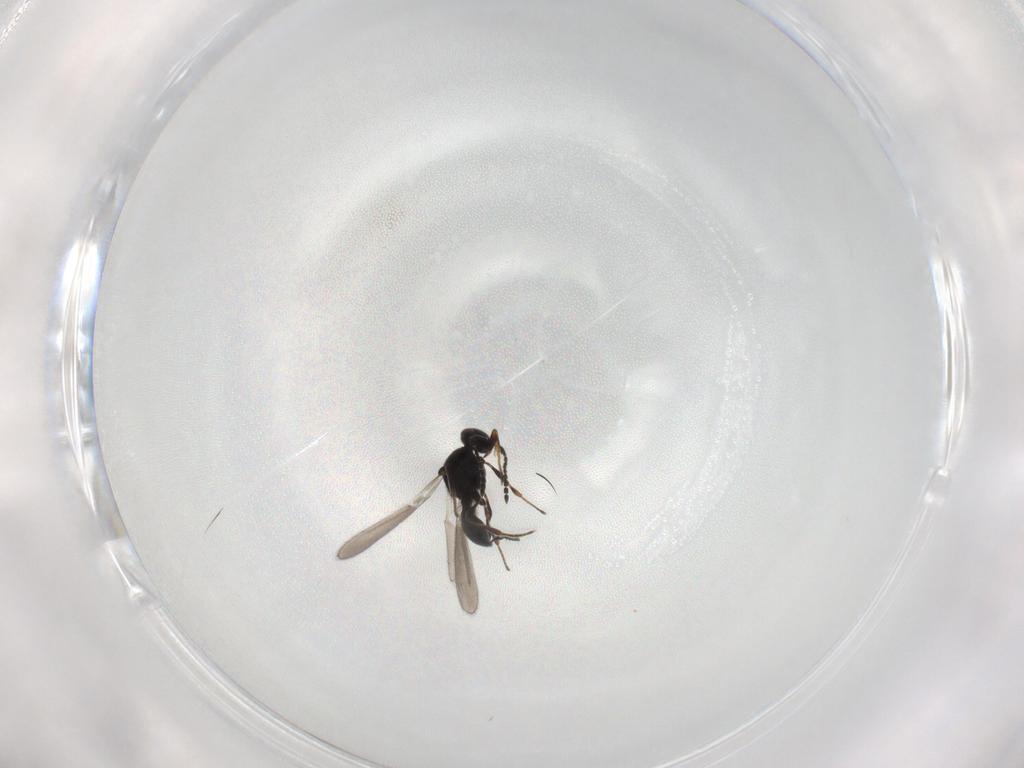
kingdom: Animalia
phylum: Arthropoda
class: Insecta
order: Hymenoptera
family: Platygastridae
